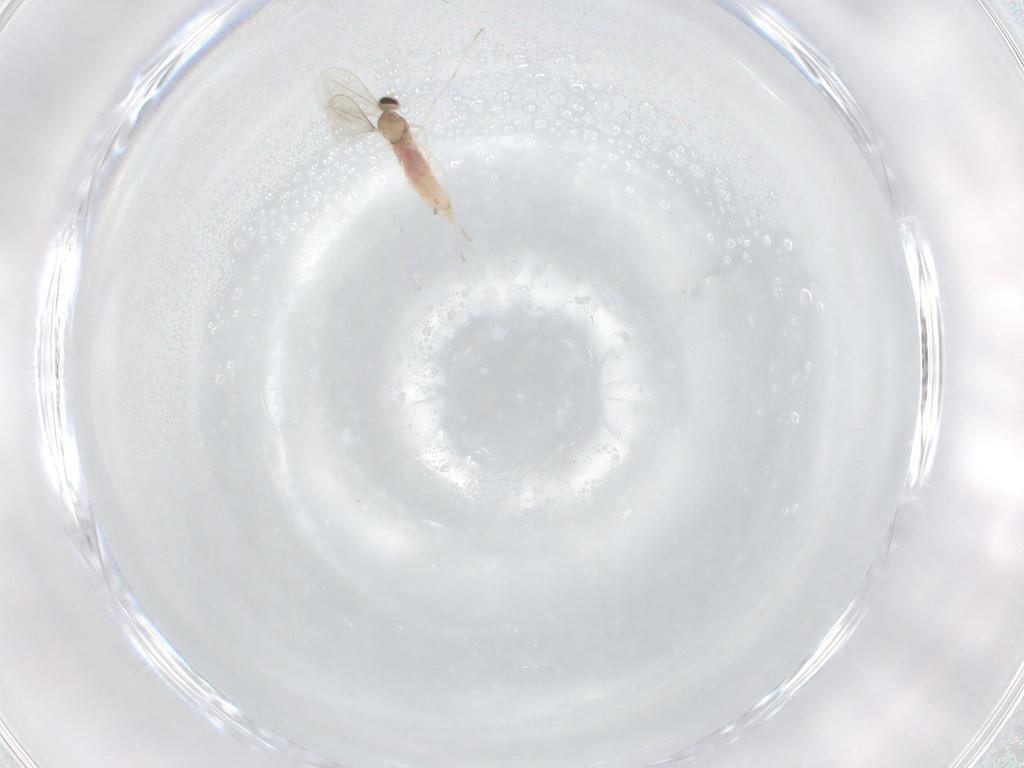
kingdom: Animalia
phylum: Arthropoda
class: Insecta
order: Diptera
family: Cecidomyiidae
